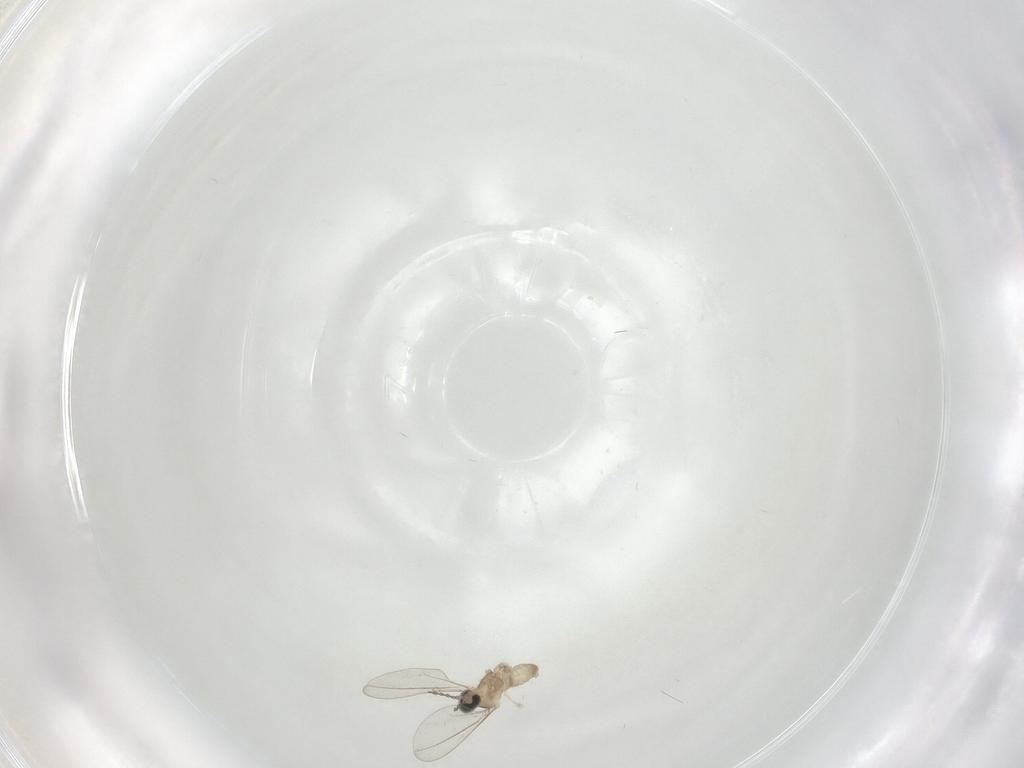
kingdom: Animalia
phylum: Arthropoda
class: Insecta
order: Diptera
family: Cecidomyiidae
